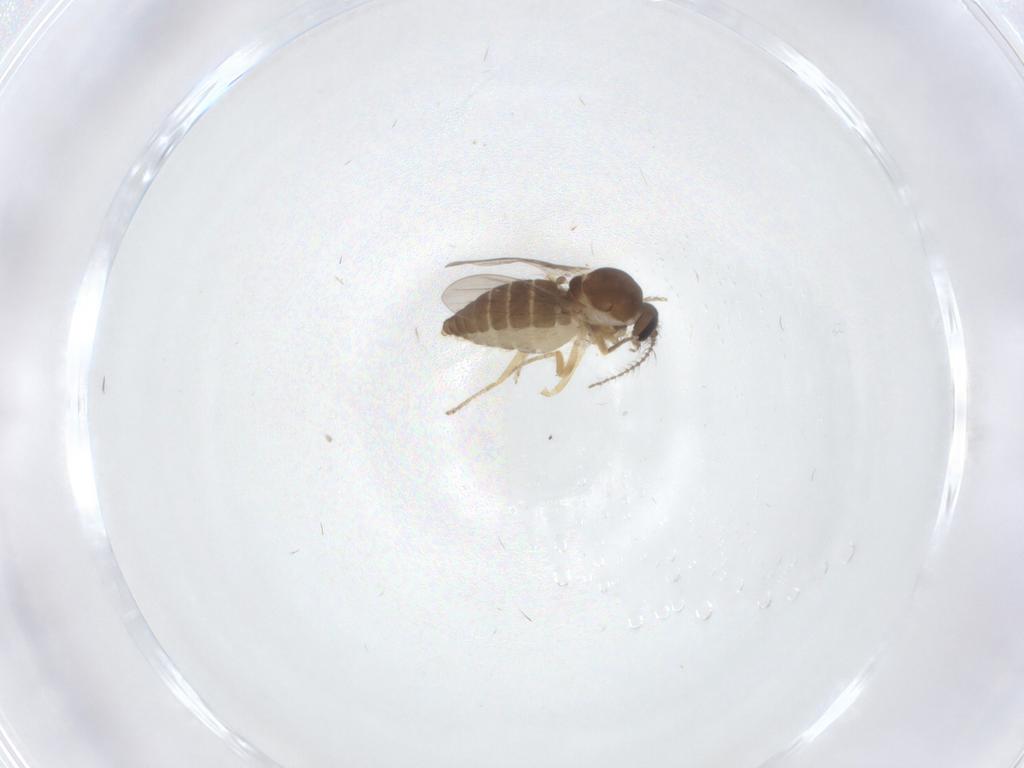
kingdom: Animalia
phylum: Arthropoda
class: Insecta
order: Diptera
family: Ceratopogonidae
